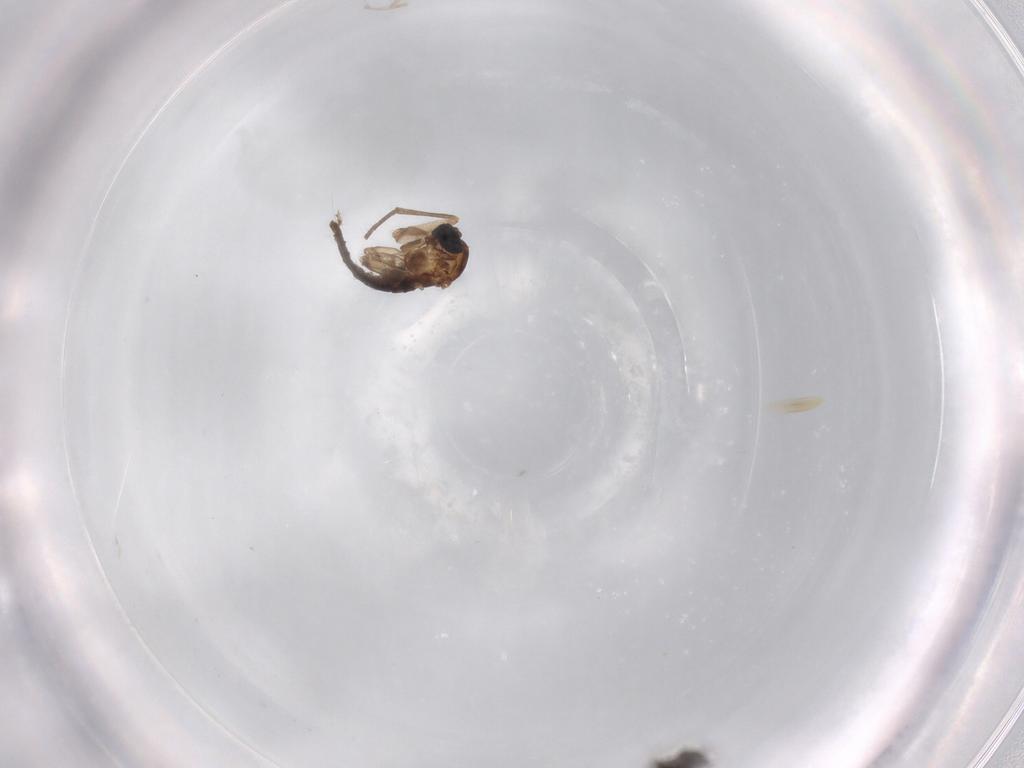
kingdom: Animalia
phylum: Arthropoda
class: Insecta
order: Diptera
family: Sciaridae
